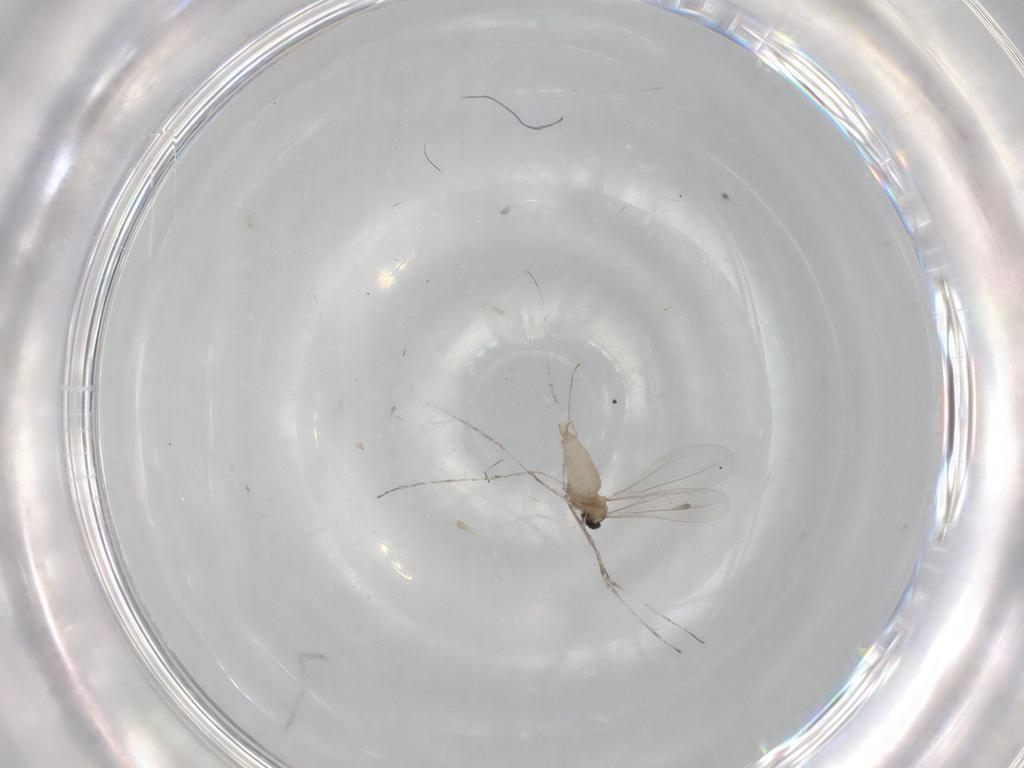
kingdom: Animalia
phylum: Arthropoda
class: Insecta
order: Diptera
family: Cecidomyiidae
